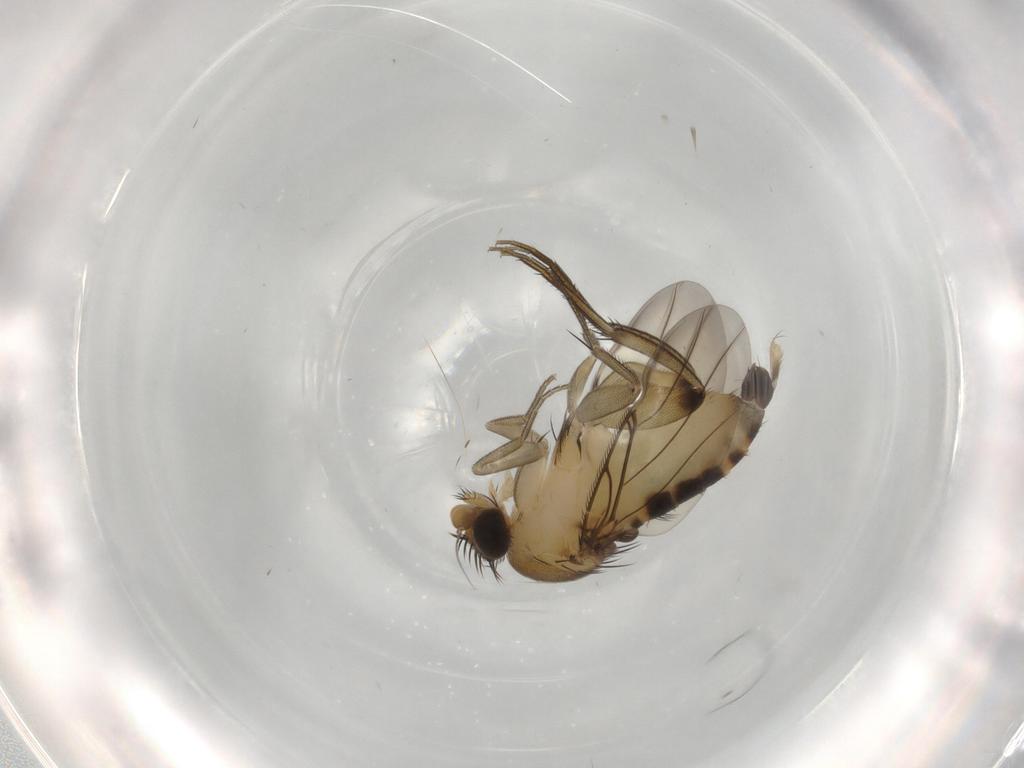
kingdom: Animalia
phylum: Arthropoda
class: Insecta
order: Diptera
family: Phoridae
